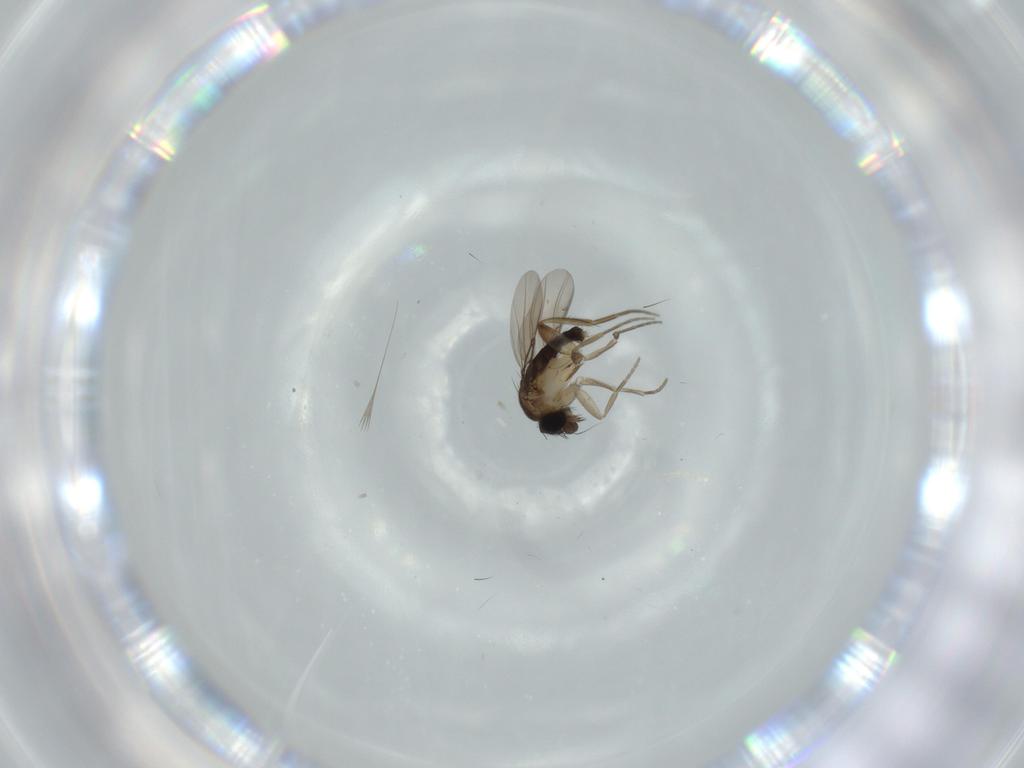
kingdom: Animalia
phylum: Arthropoda
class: Insecta
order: Diptera
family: Phoridae
